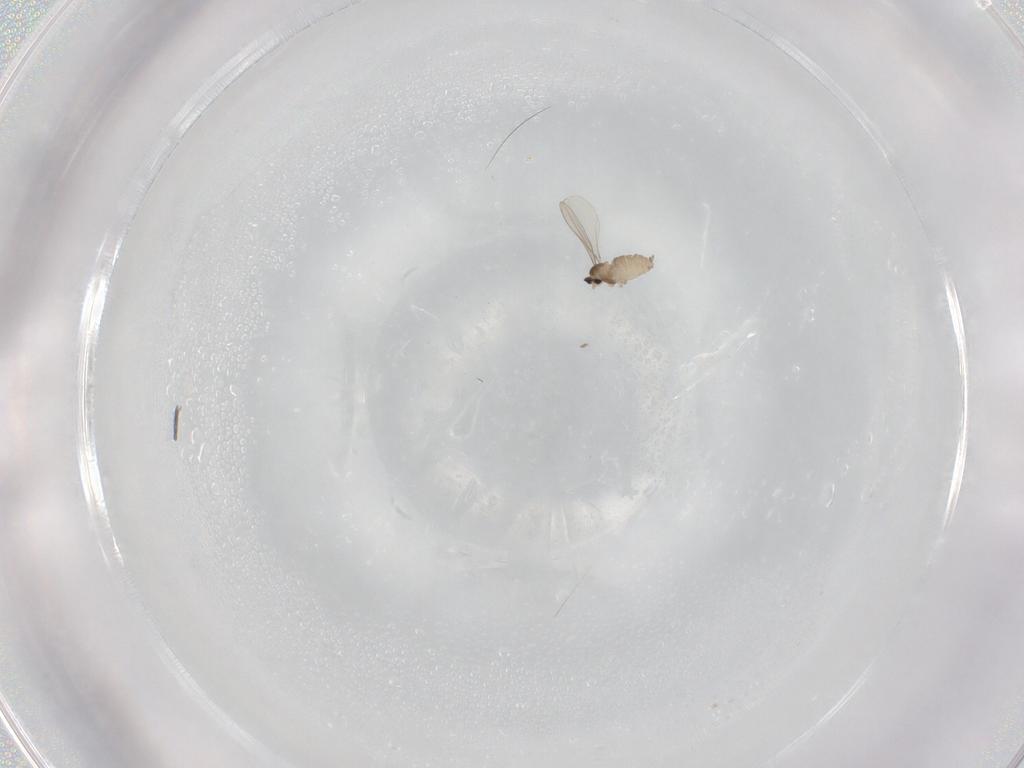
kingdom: Animalia
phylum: Arthropoda
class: Insecta
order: Diptera
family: Cecidomyiidae
